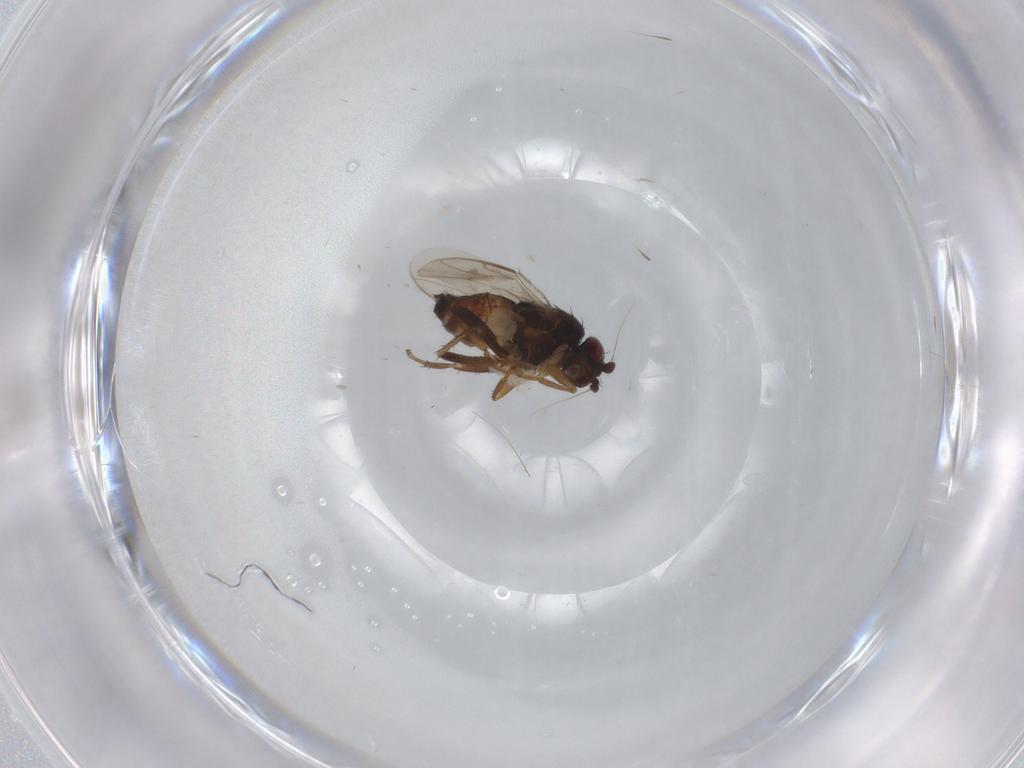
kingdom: Animalia
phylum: Arthropoda
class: Insecta
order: Diptera
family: Sphaeroceridae
